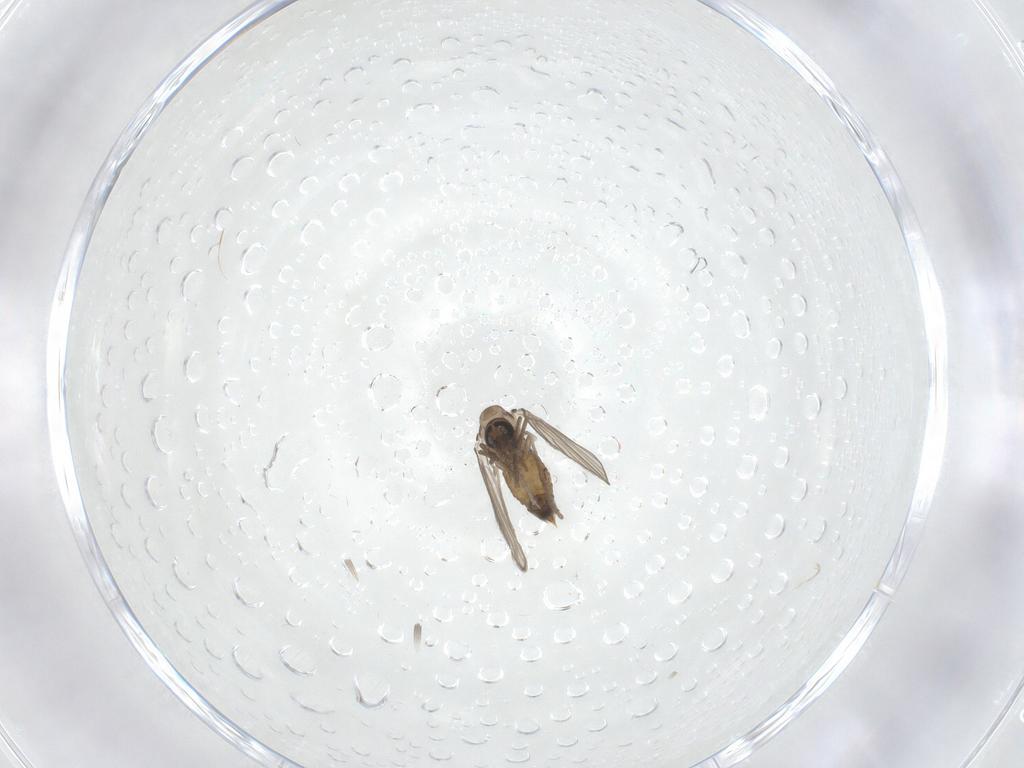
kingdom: Animalia
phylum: Arthropoda
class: Insecta
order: Diptera
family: Psychodidae
